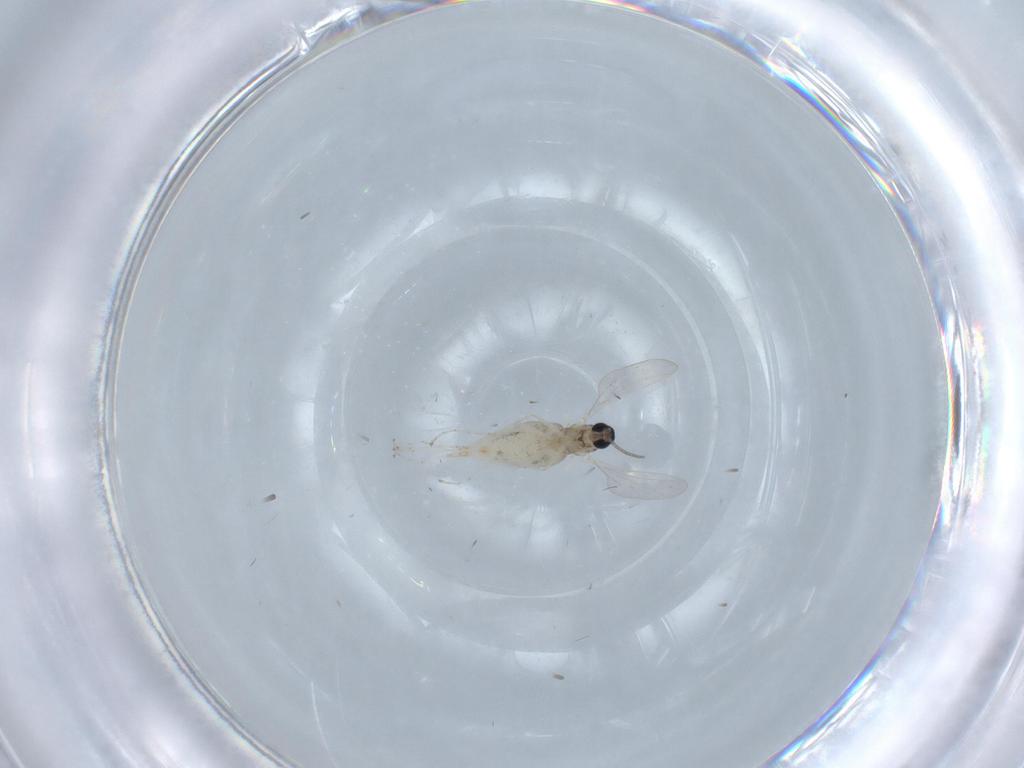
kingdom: Animalia
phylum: Arthropoda
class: Insecta
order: Diptera
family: Cecidomyiidae
